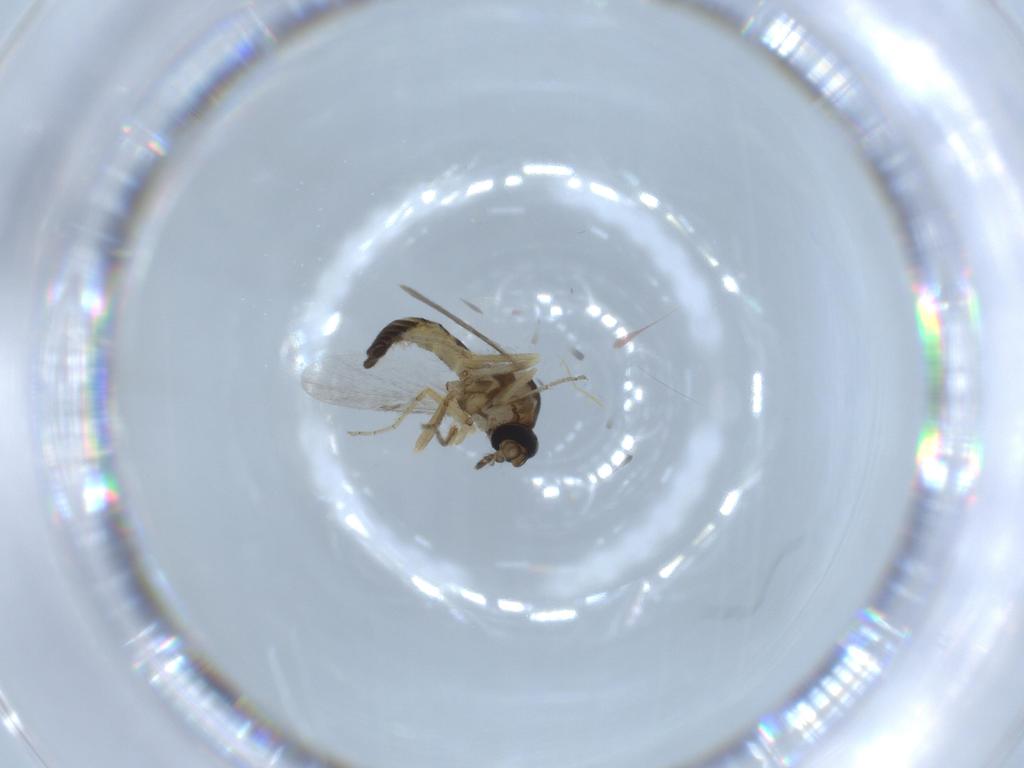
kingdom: Animalia
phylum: Arthropoda
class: Insecta
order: Diptera
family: Ceratopogonidae
